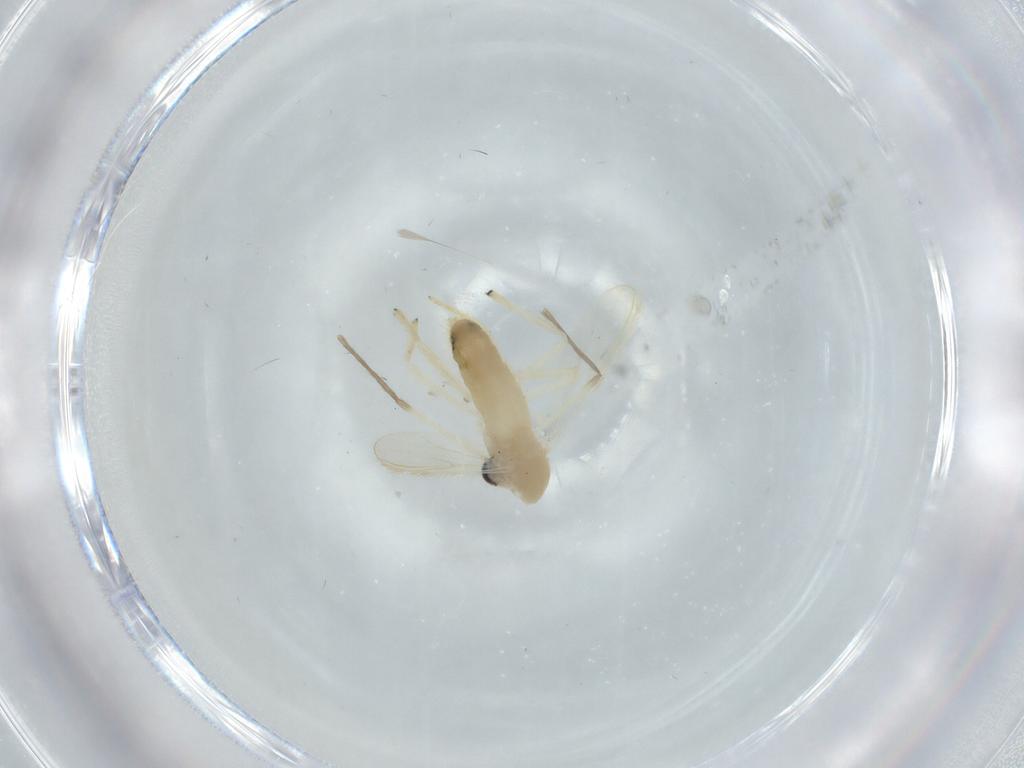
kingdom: Animalia
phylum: Arthropoda
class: Insecta
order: Diptera
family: Chironomidae
